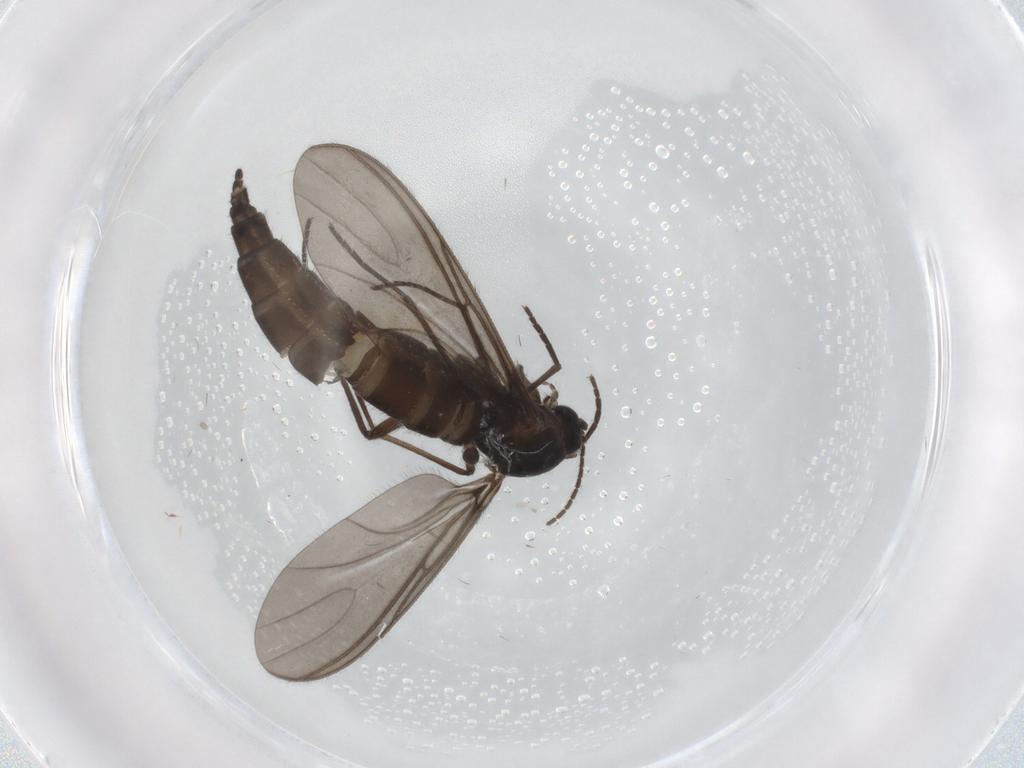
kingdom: Animalia
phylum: Arthropoda
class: Insecta
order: Diptera
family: Sciaridae
